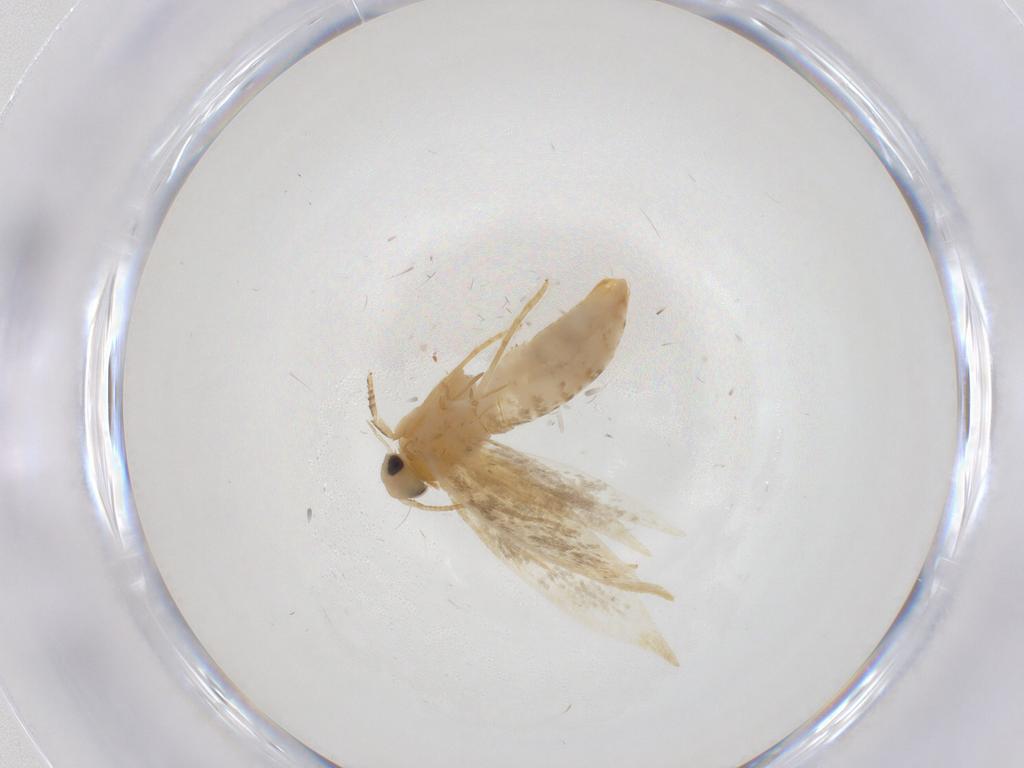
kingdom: Animalia
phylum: Arthropoda
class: Insecta
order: Lepidoptera
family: Nepticulidae
